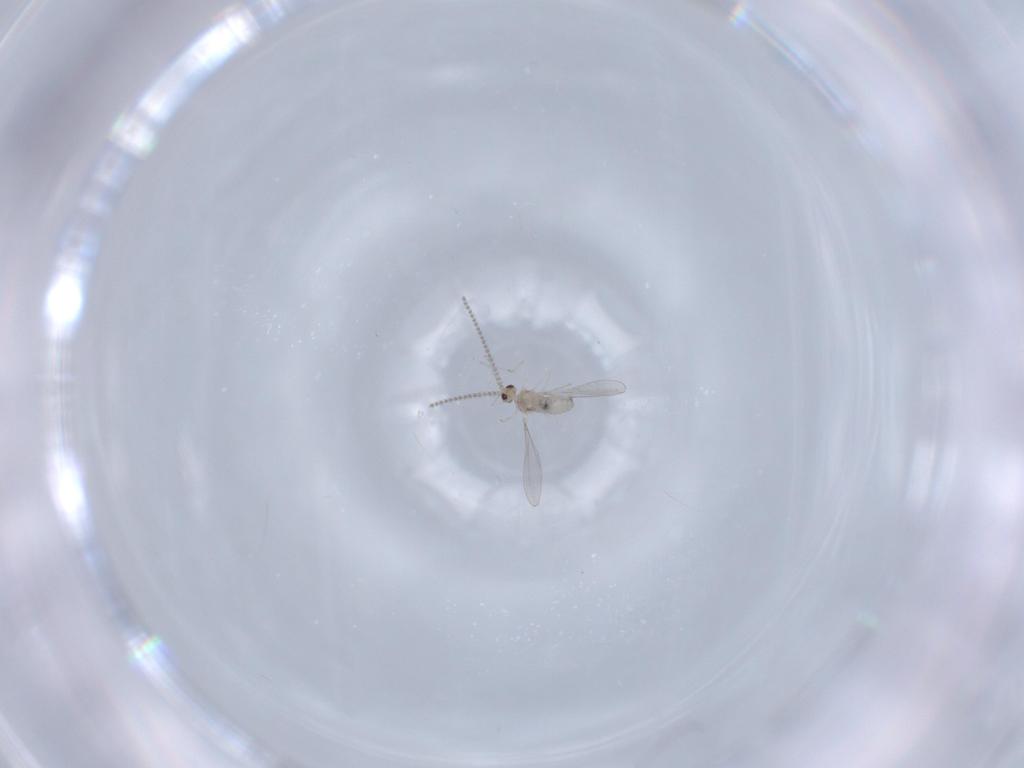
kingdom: Animalia
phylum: Arthropoda
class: Insecta
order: Diptera
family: Cecidomyiidae
